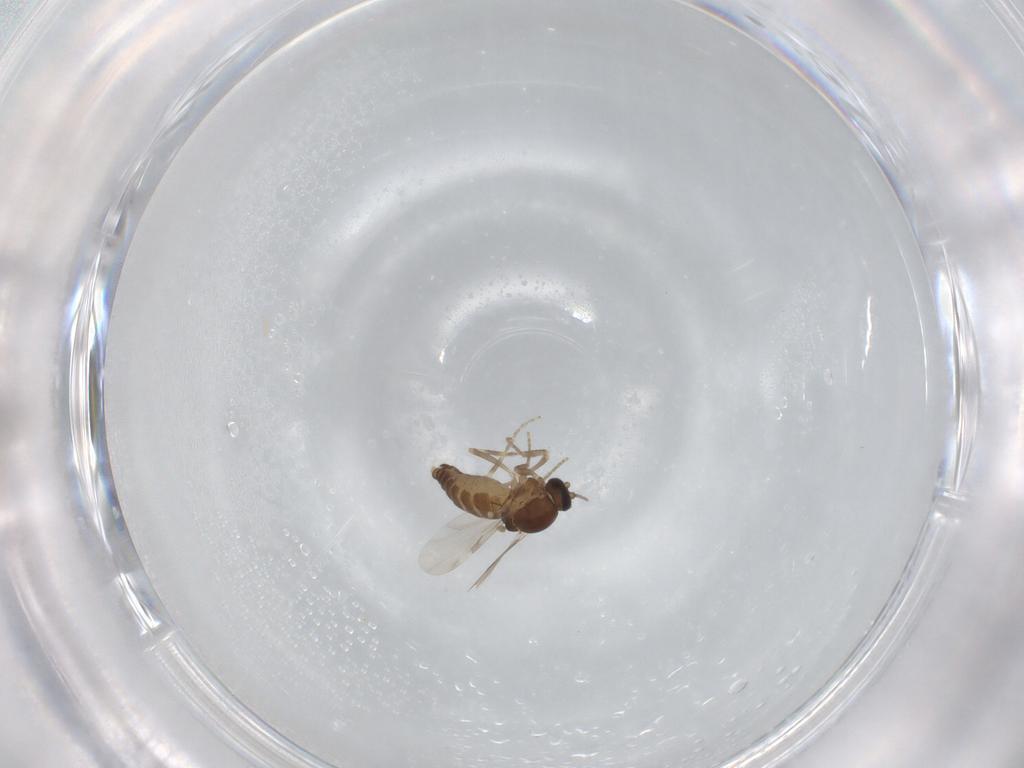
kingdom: Animalia
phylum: Arthropoda
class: Insecta
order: Diptera
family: Ceratopogonidae
